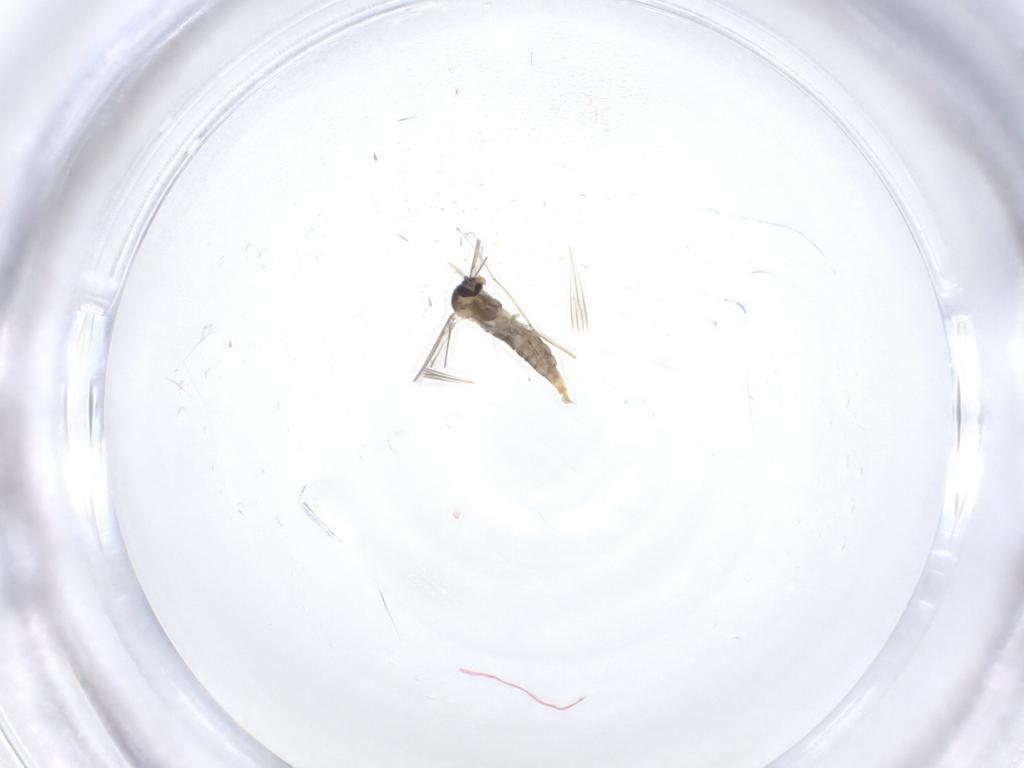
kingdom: Animalia
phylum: Arthropoda
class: Insecta
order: Diptera
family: Cecidomyiidae
